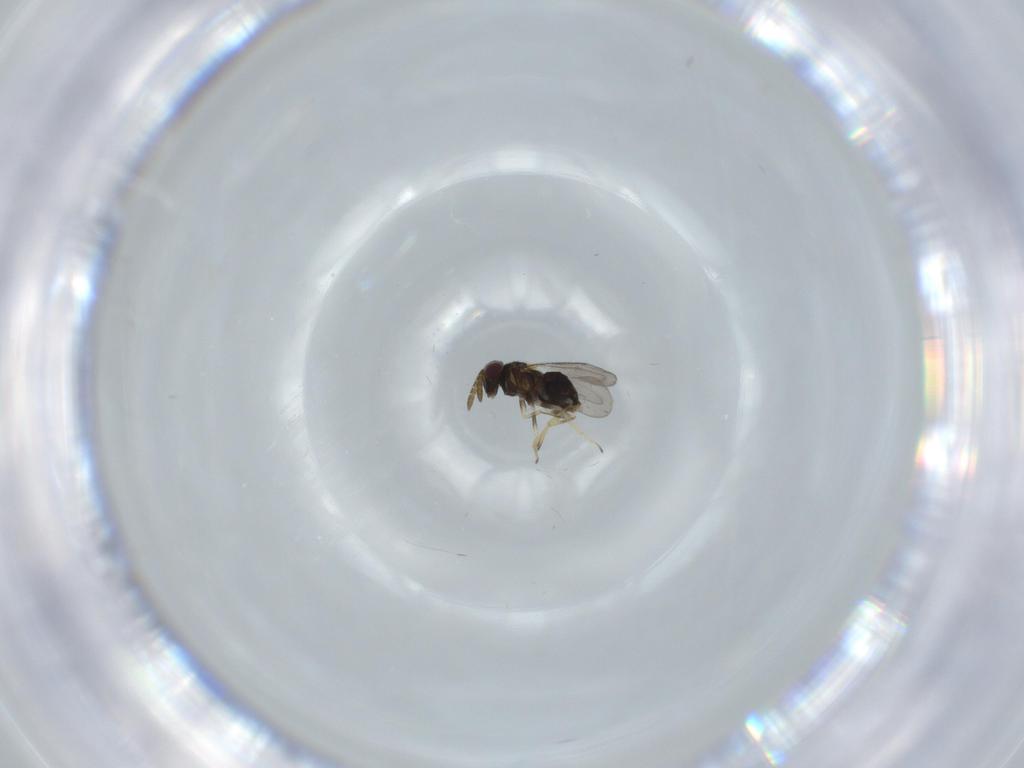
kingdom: Animalia
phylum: Arthropoda
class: Insecta
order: Hymenoptera
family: Aphelinidae
